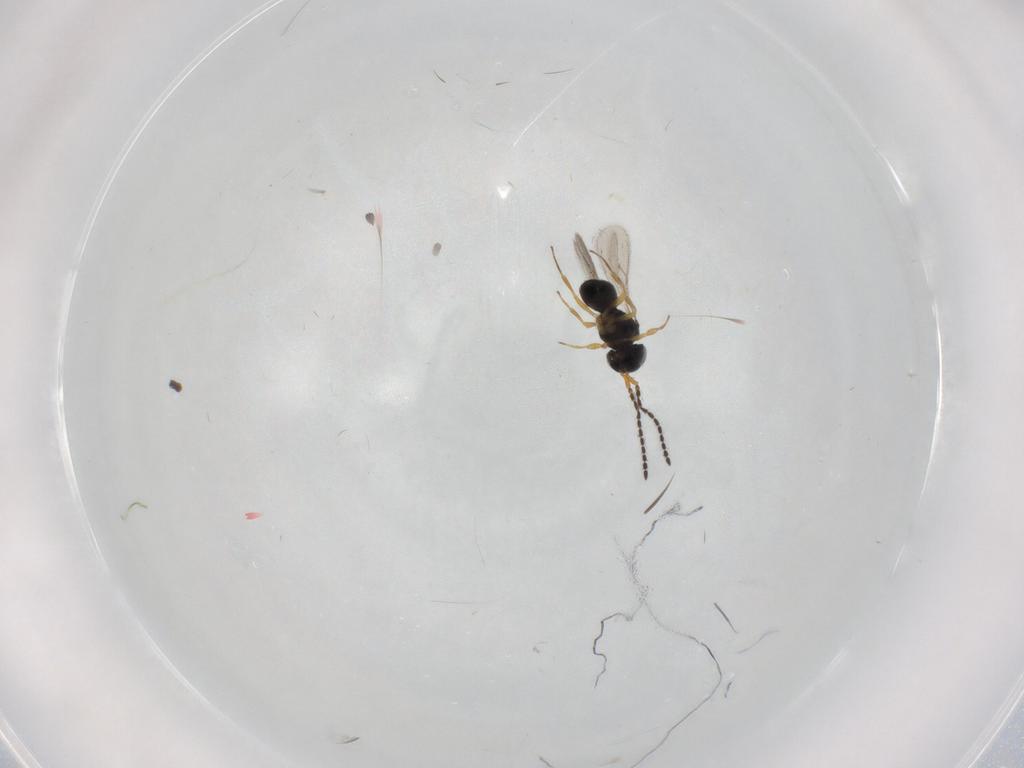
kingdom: Animalia
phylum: Arthropoda
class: Insecta
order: Hymenoptera
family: Scelionidae
